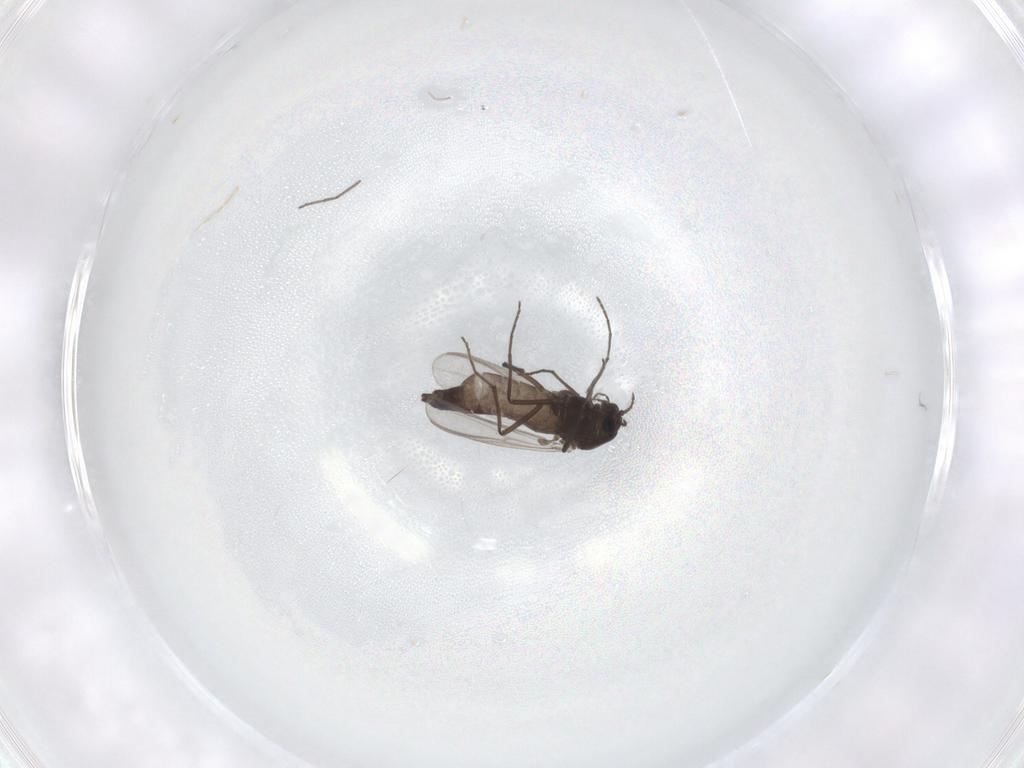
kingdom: Animalia
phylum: Arthropoda
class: Insecta
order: Diptera
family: Chironomidae
